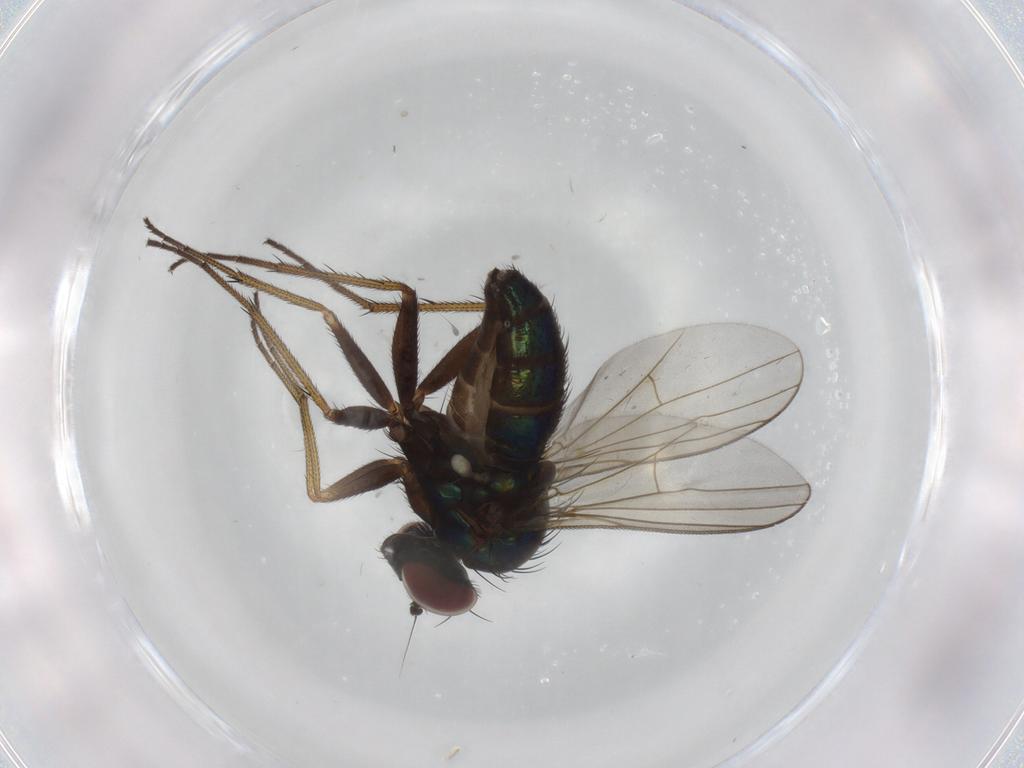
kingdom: Animalia
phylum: Arthropoda
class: Insecta
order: Diptera
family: Dolichopodidae
